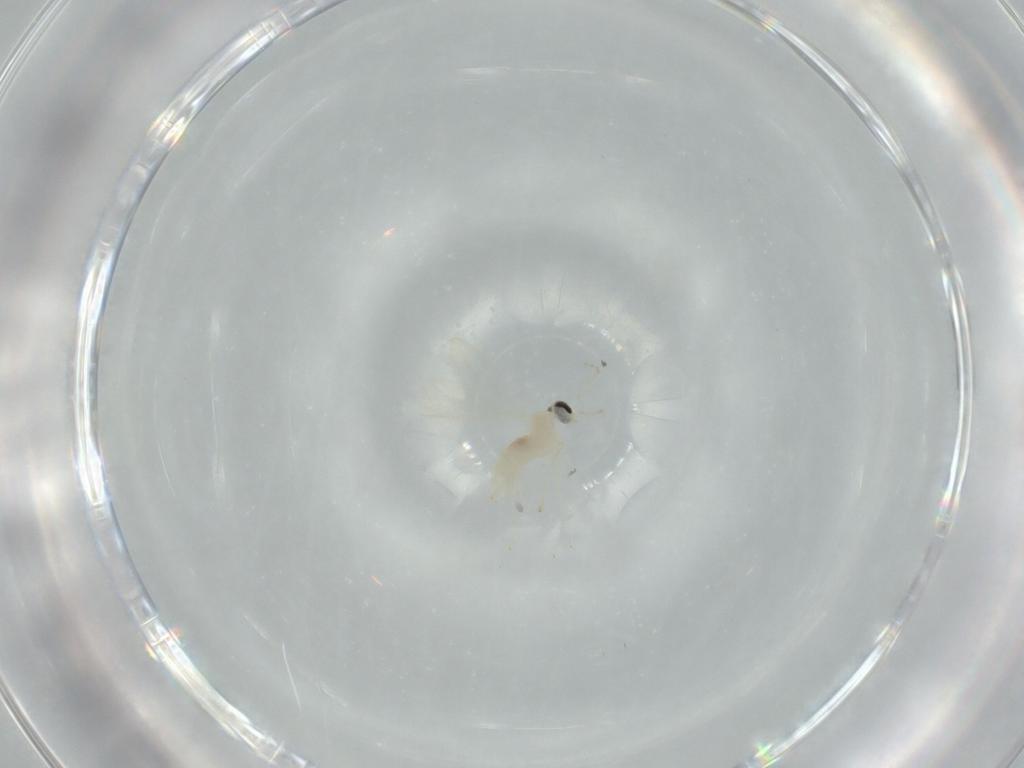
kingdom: Animalia
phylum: Arthropoda
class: Insecta
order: Diptera
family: Cecidomyiidae
